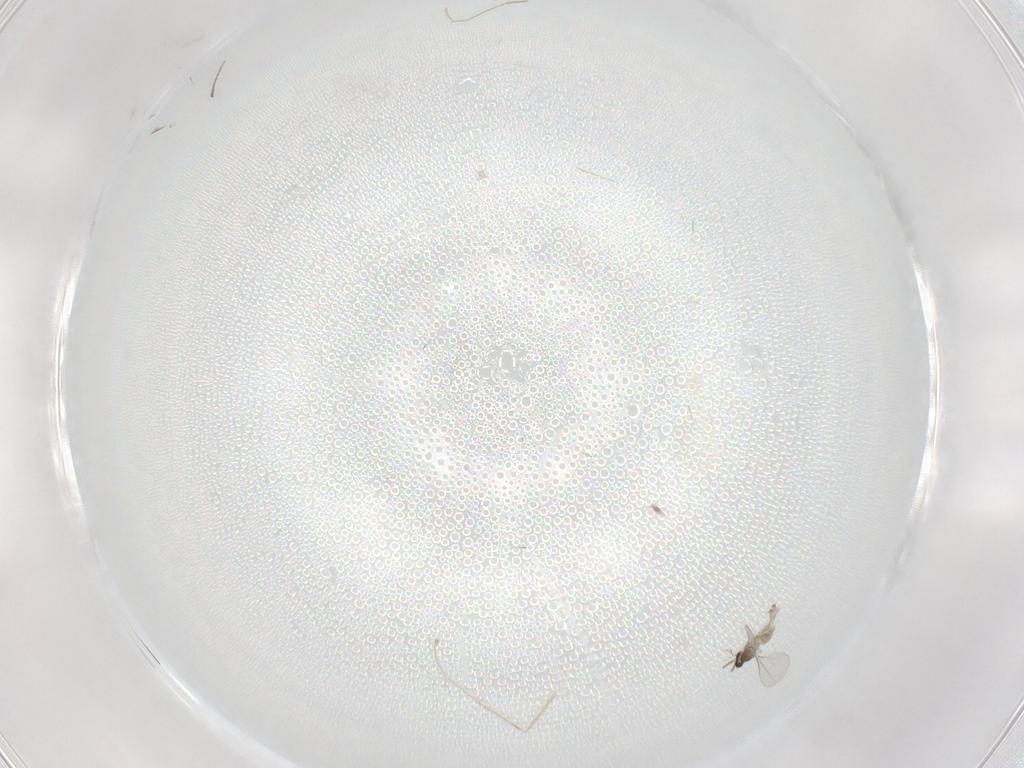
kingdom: Animalia
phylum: Arthropoda
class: Insecta
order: Diptera
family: Cecidomyiidae
